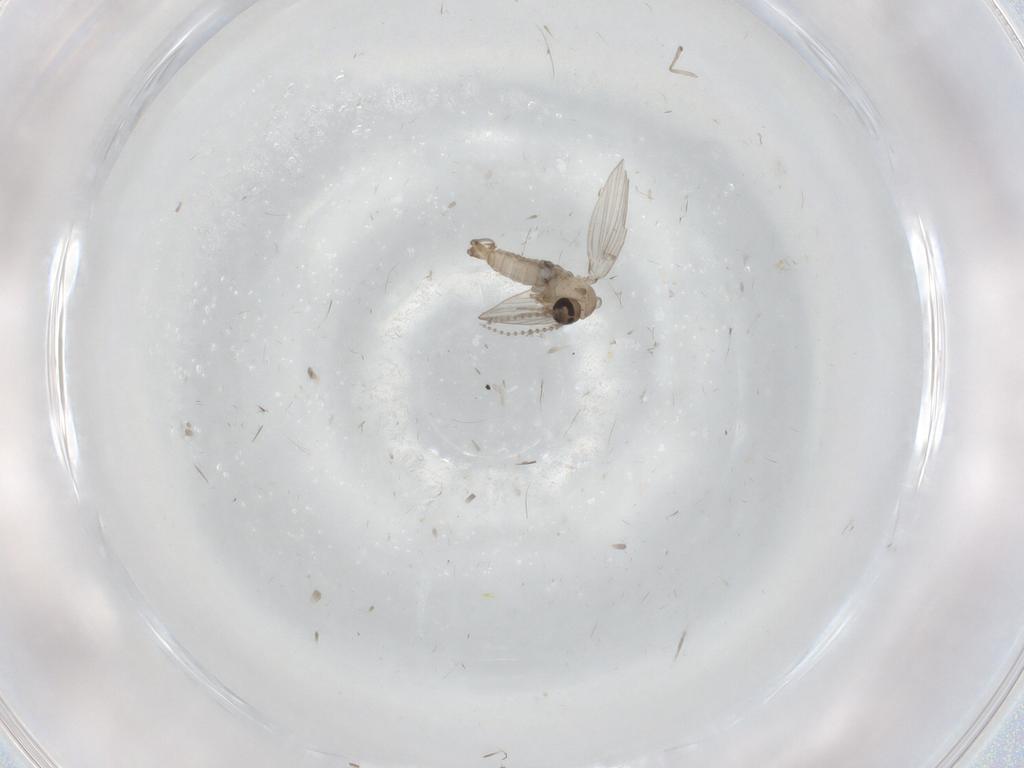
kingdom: Animalia
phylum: Arthropoda
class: Insecta
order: Diptera
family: Psychodidae
